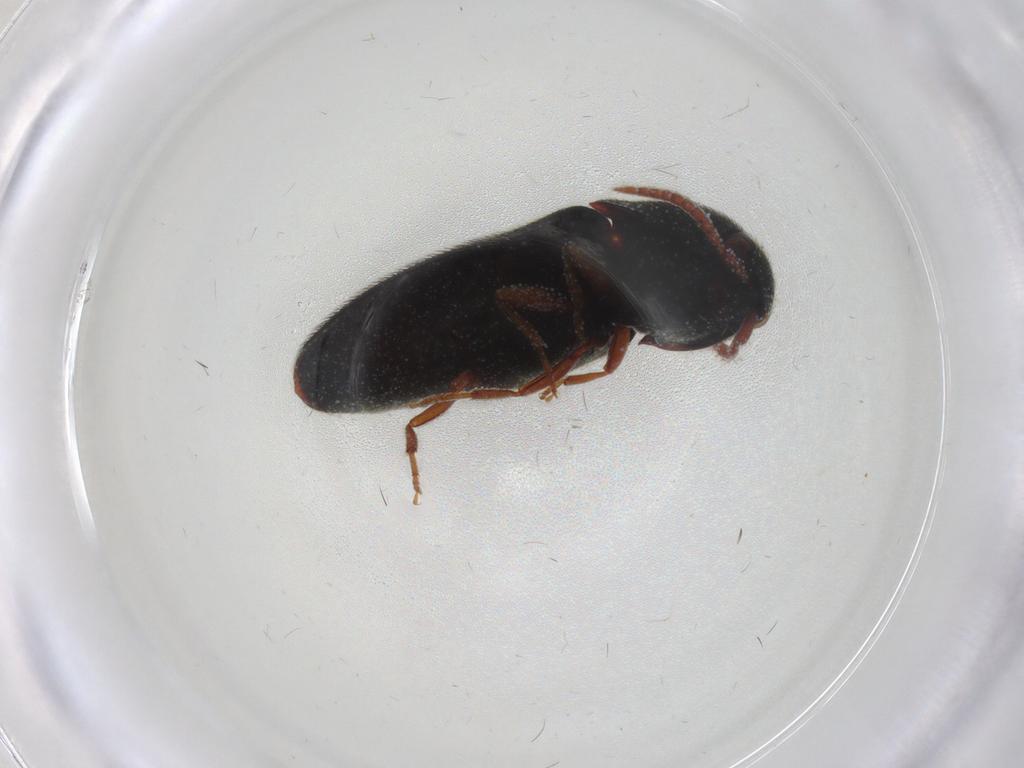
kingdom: Animalia
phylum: Arthropoda
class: Insecta
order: Coleoptera
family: Eucnemidae
